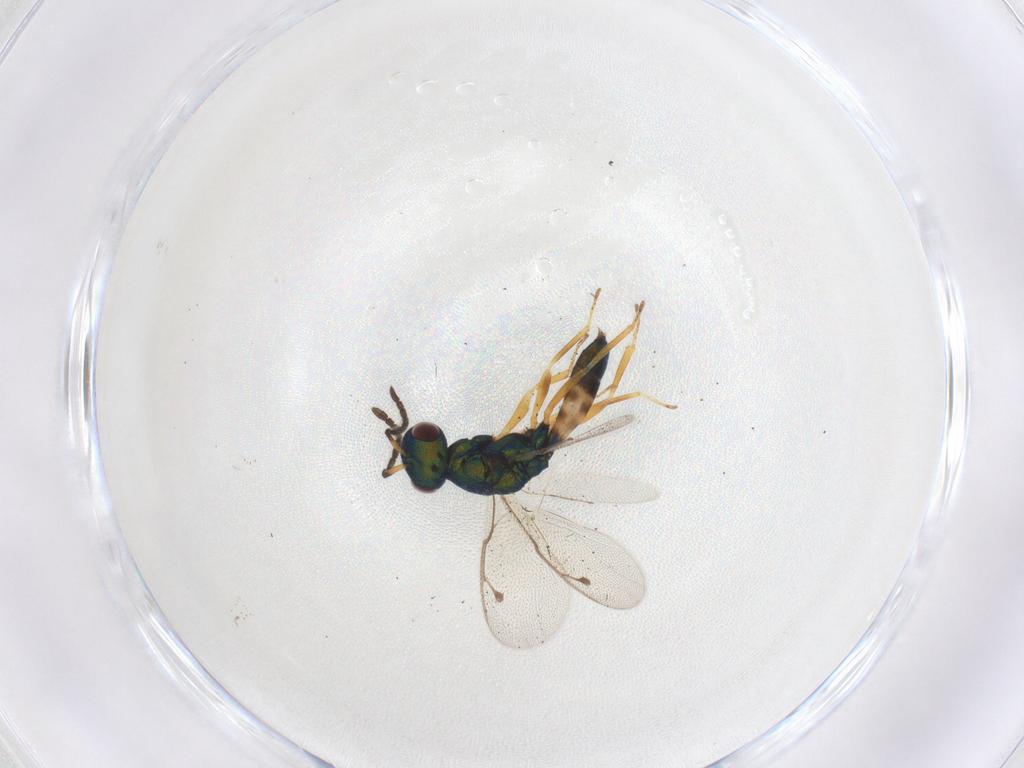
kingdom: Animalia
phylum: Arthropoda
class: Insecta
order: Hymenoptera
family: Pteromalidae
